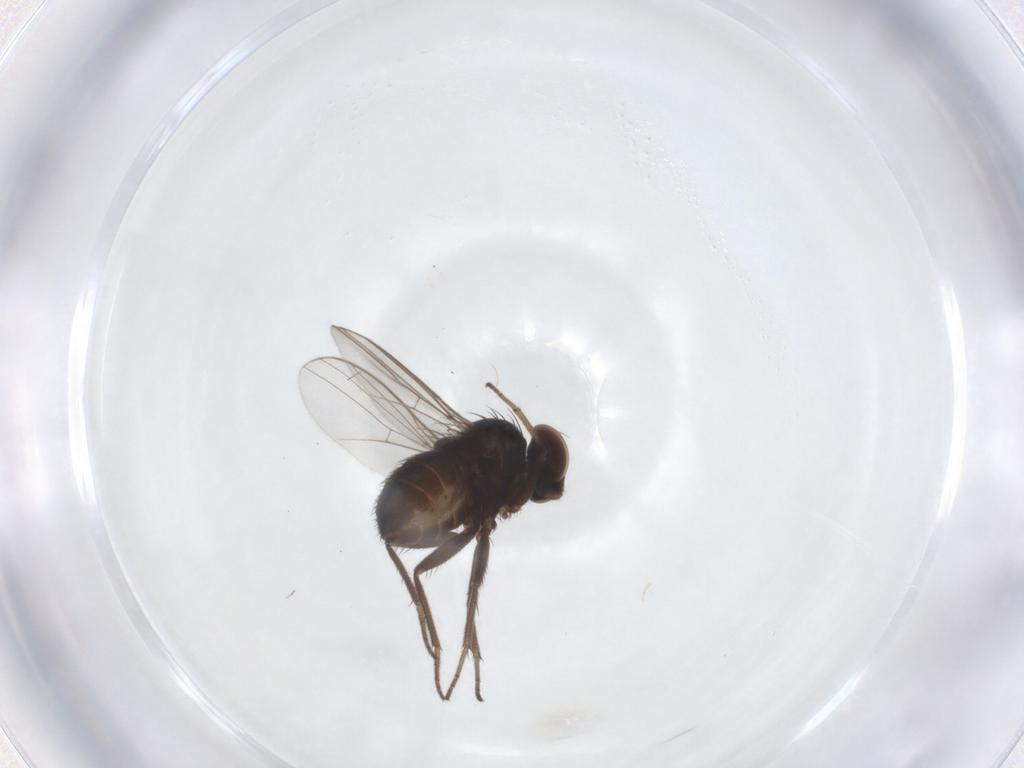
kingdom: Animalia
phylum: Arthropoda
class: Insecta
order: Diptera
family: Dolichopodidae
